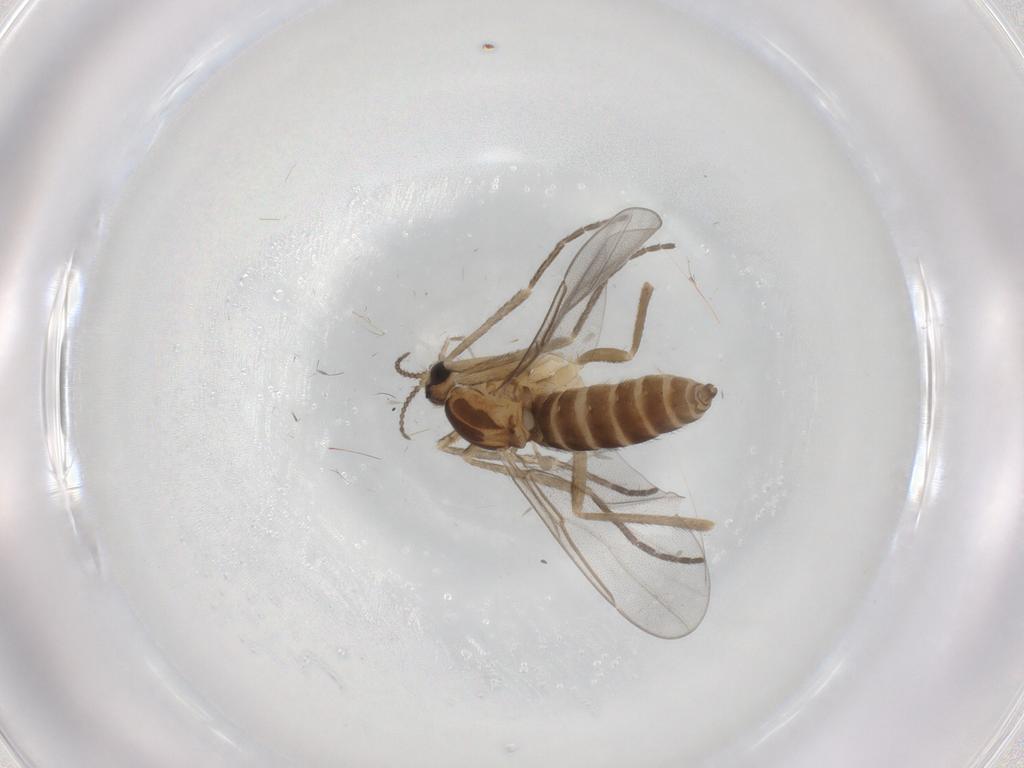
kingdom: Animalia
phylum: Arthropoda
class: Insecta
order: Diptera
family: Cecidomyiidae
